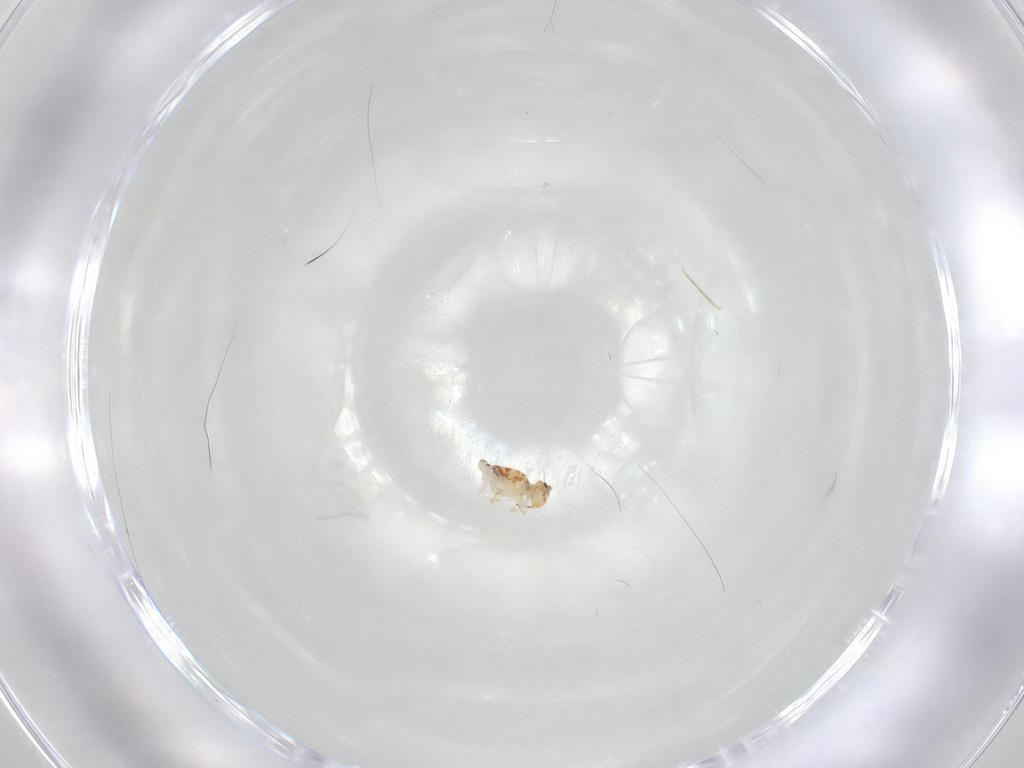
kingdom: Animalia
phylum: Arthropoda
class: Collembola
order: Symphypleona
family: Bourletiellidae
